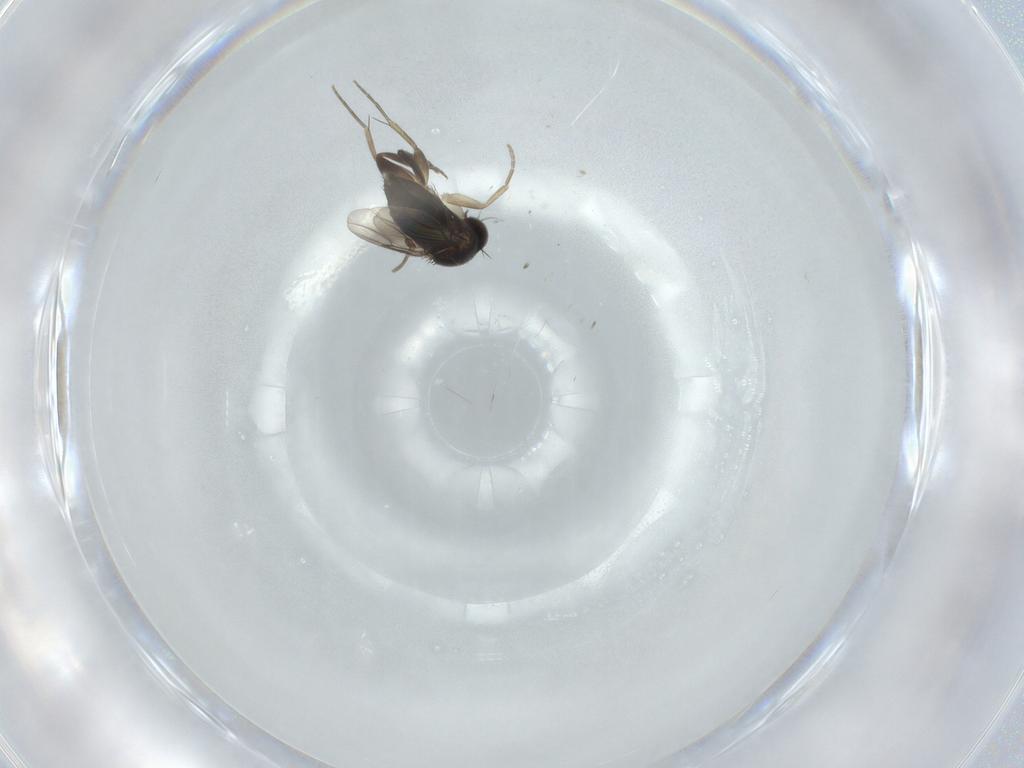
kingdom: Animalia
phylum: Arthropoda
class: Insecta
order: Diptera
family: Phoridae
